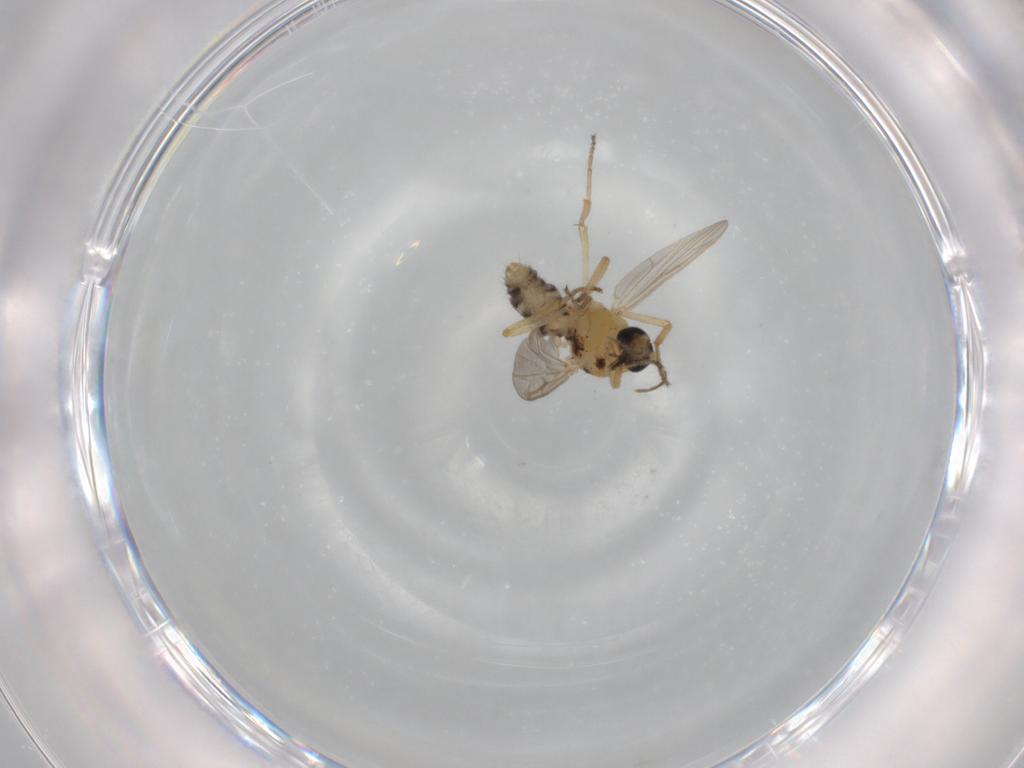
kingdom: Animalia
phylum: Arthropoda
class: Insecta
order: Diptera
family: Ceratopogonidae
